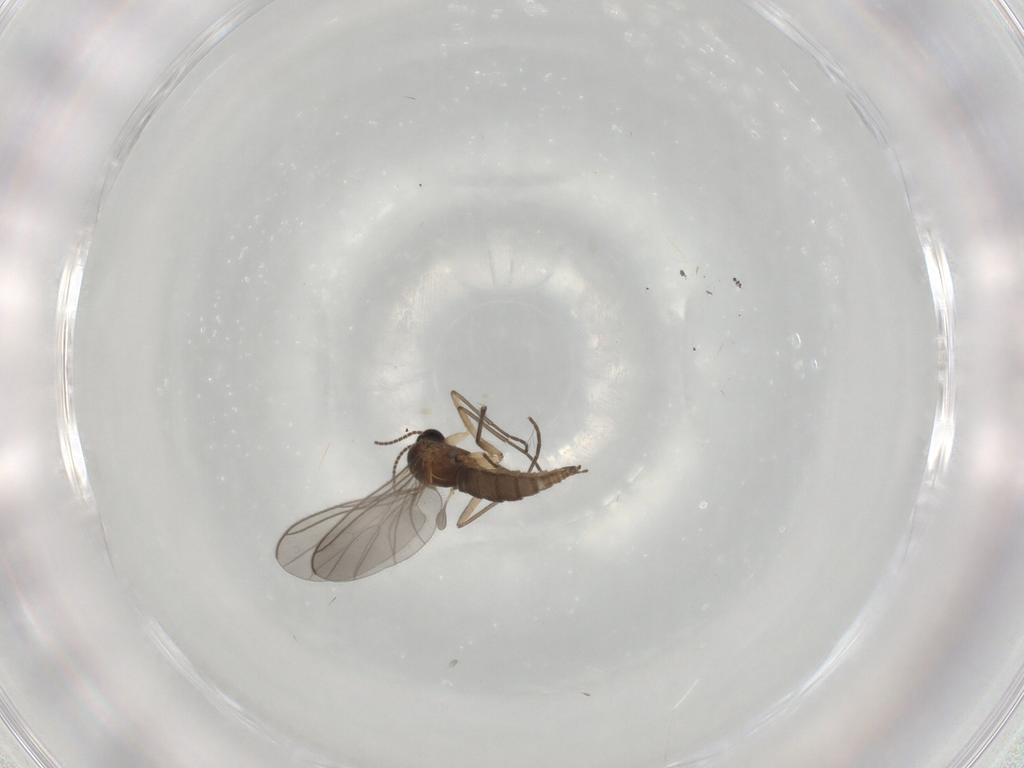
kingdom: Animalia
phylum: Arthropoda
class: Insecta
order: Diptera
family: Sciaridae
